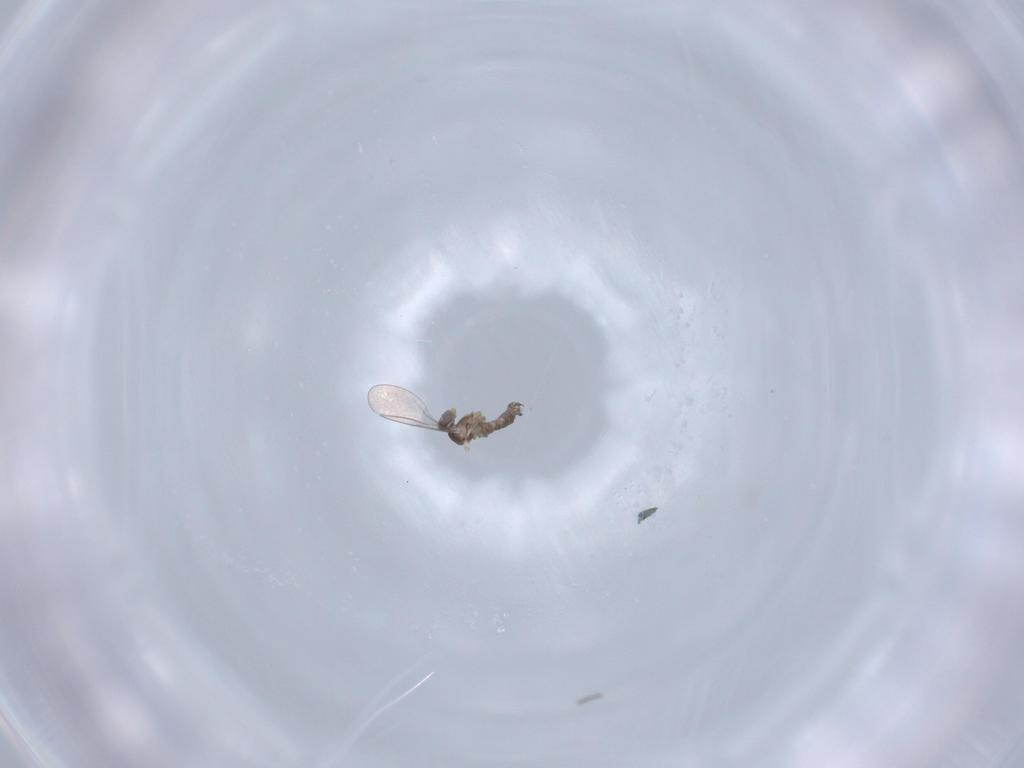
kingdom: Animalia
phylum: Arthropoda
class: Insecta
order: Diptera
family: Cecidomyiidae
